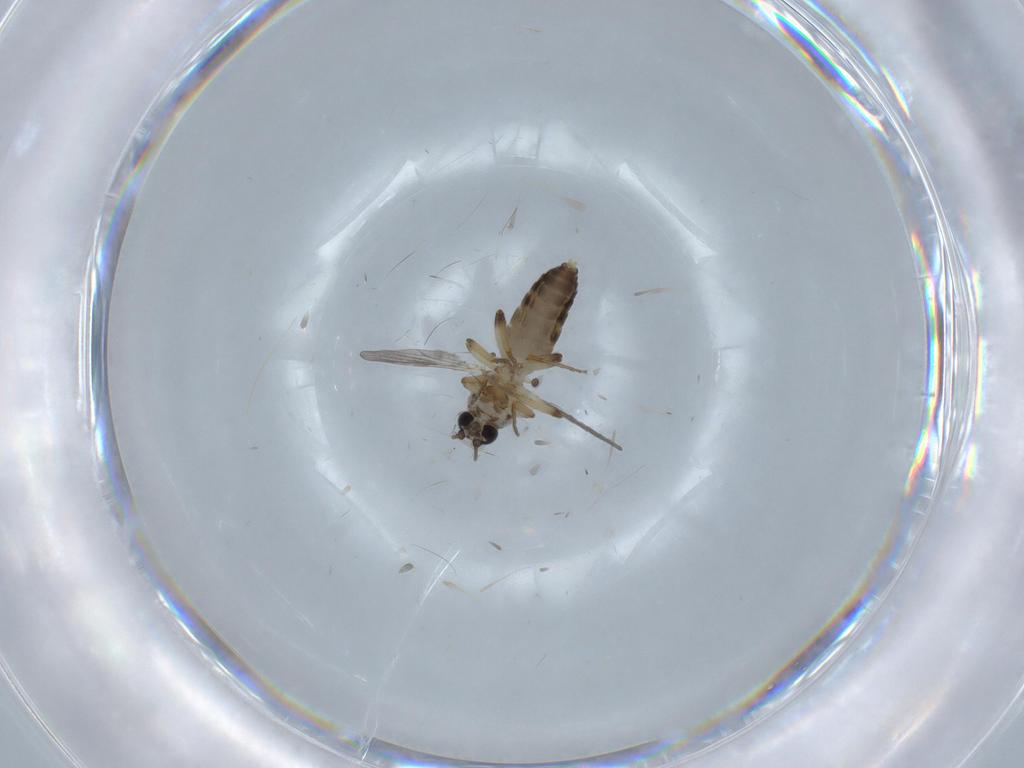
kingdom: Animalia
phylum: Arthropoda
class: Insecta
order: Diptera
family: Ceratopogonidae
